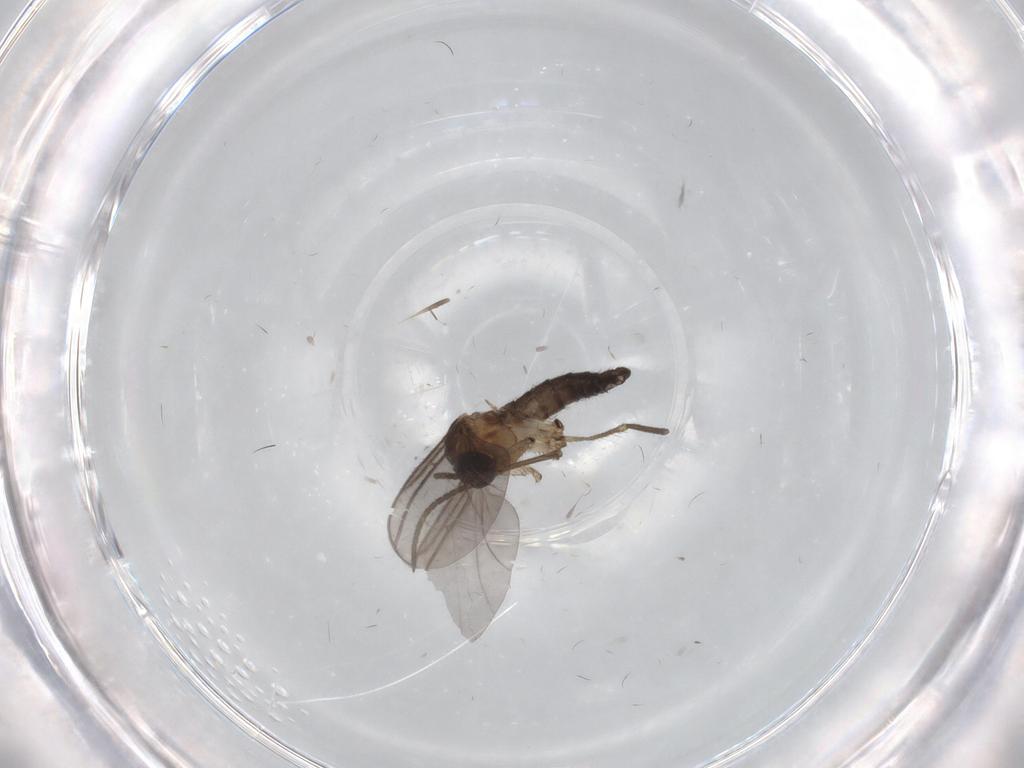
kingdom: Animalia
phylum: Arthropoda
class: Insecta
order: Diptera
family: Sciaridae
